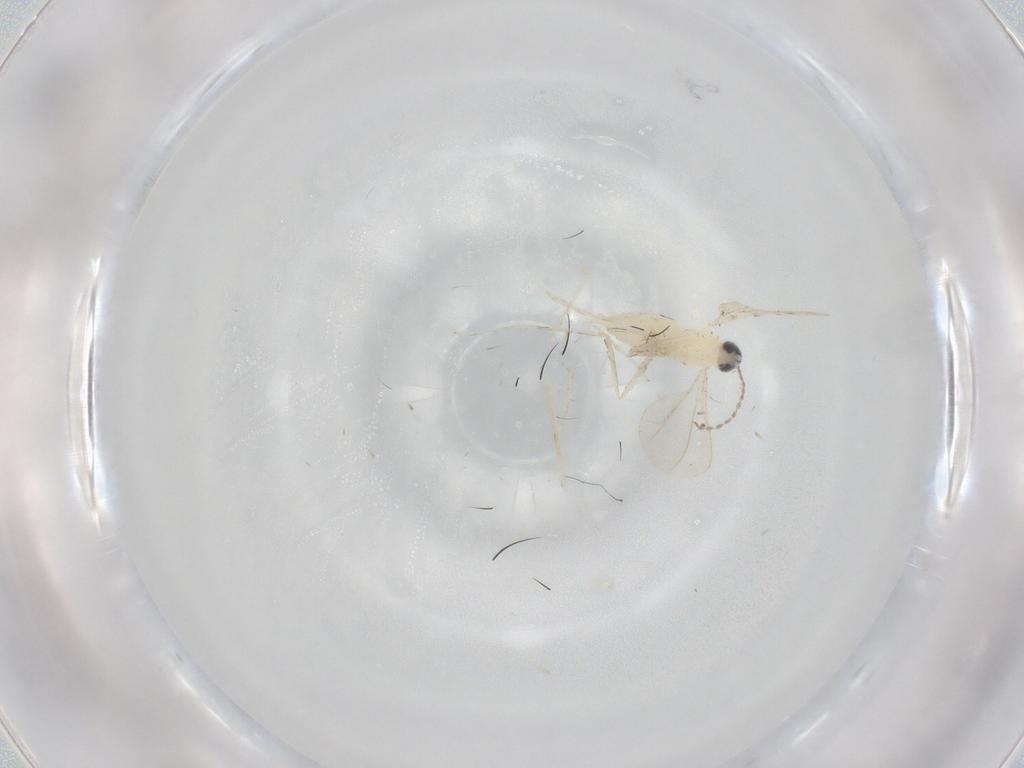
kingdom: Animalia
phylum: Arthropoda
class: Insecta
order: Diptera
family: Cecidomyiidae
